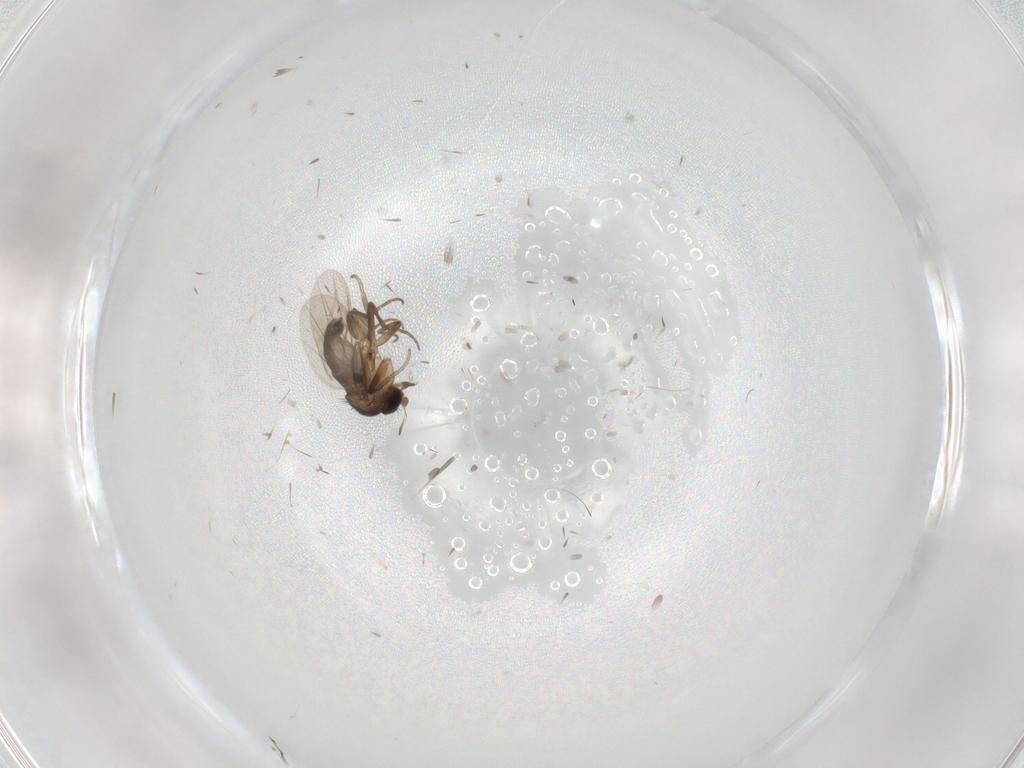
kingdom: Animalia
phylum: Arthropoda
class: Insecta
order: Diptera
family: Phoridae
